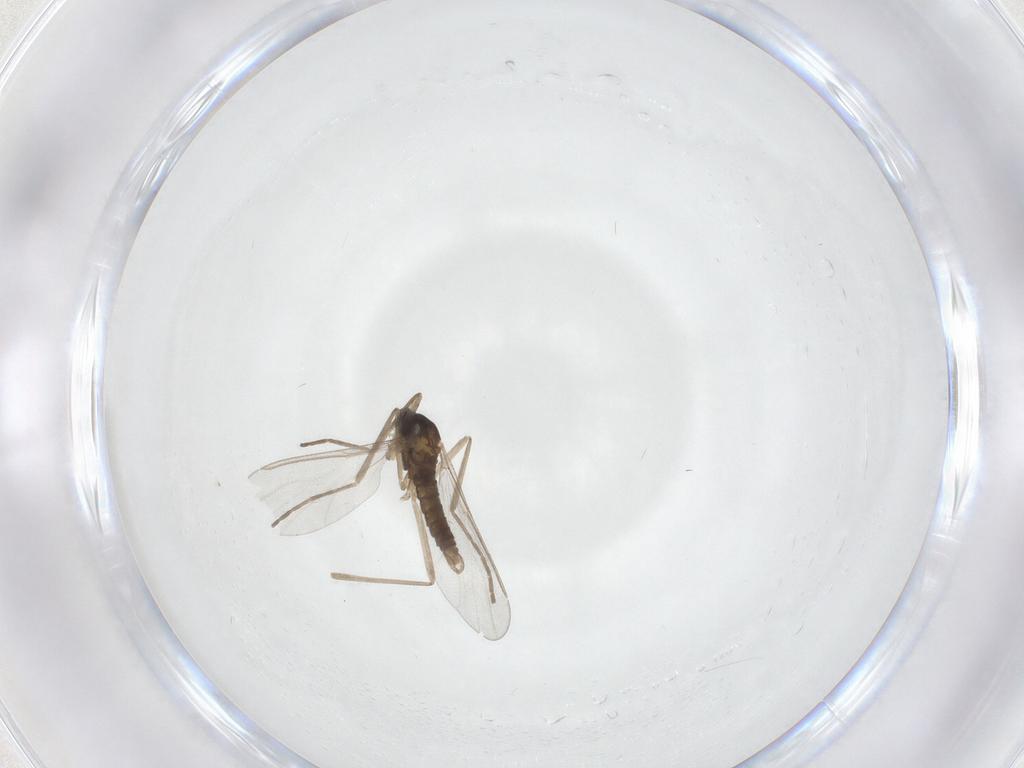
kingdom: Animalia
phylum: Arthropoda
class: Insecta
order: Diptera
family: Cecidomyiidae
